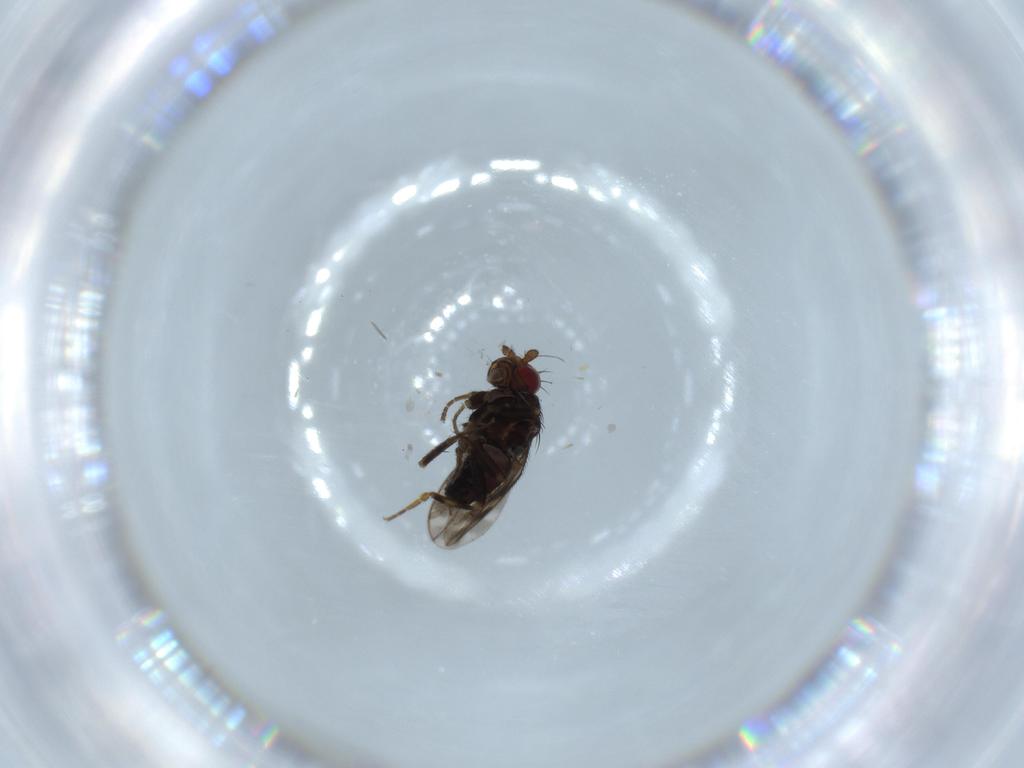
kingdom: Animalia
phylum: Arthropoda
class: Insecta
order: Diptera
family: Sphaeroceridae
